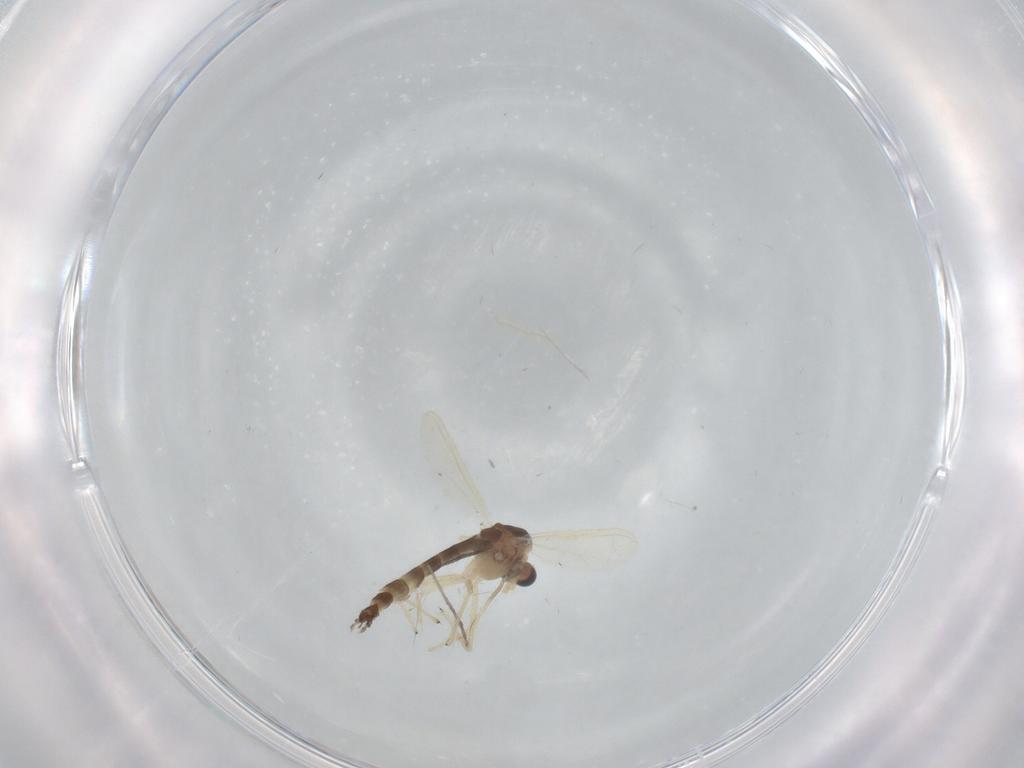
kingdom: Animalia
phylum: Arthropoda
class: Insecta
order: Diptera
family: Chironomidae
